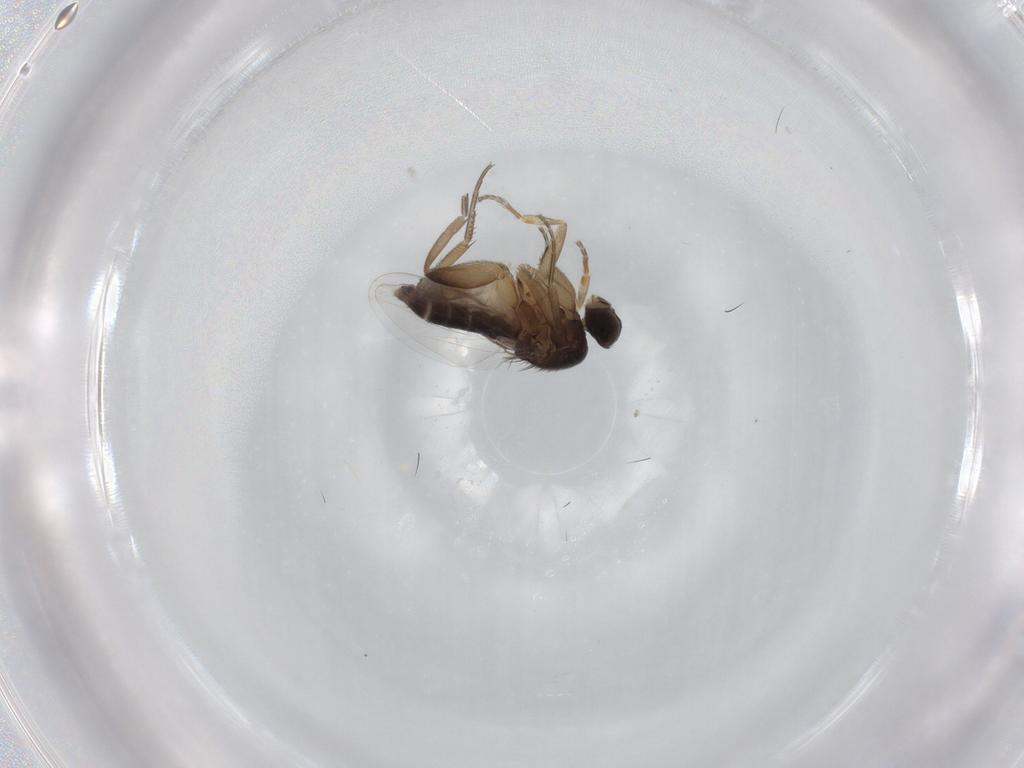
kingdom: Animalia
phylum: Arthropoda
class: Insecta
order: Diptera
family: Phoridae
